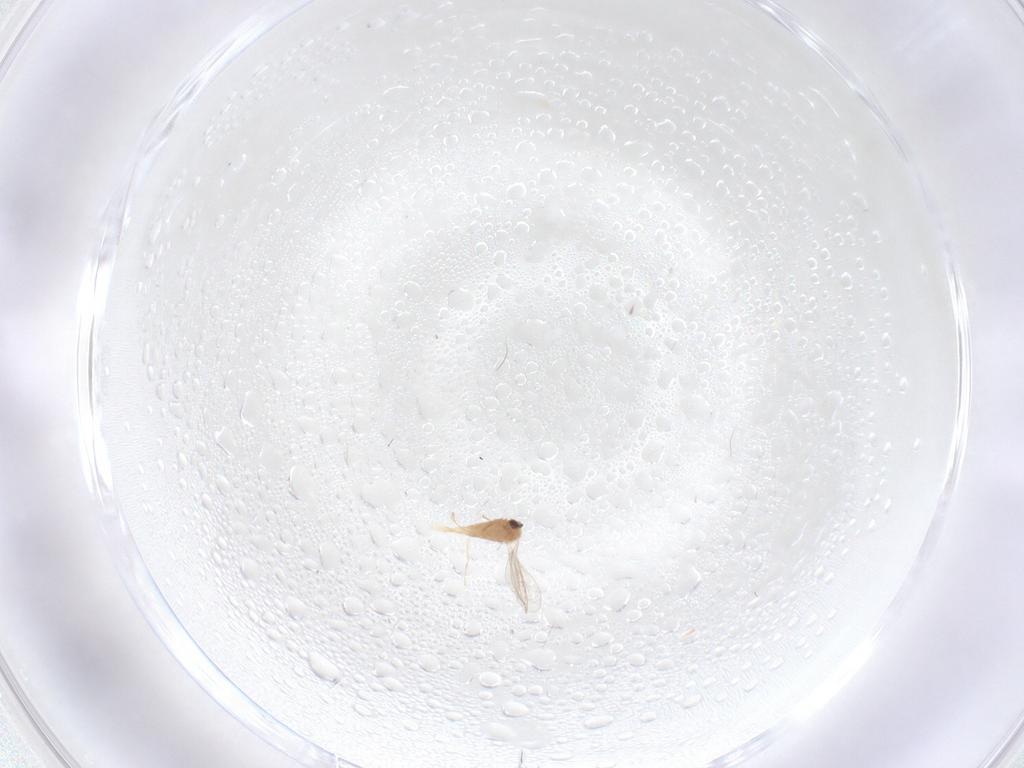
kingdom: Animalia
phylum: Arthropoda
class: Insecta
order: Diptera
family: Cecidomyiidae
